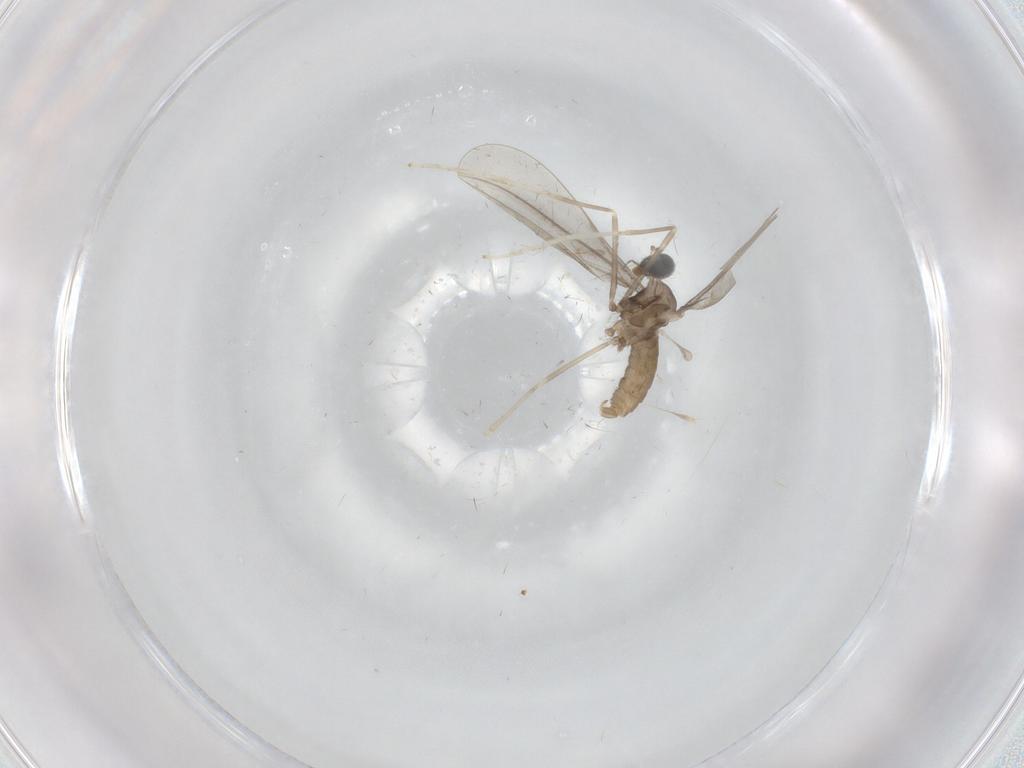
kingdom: Animalia
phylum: Arthropoda
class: Insecta
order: Diptera
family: Cecidomyiidae
